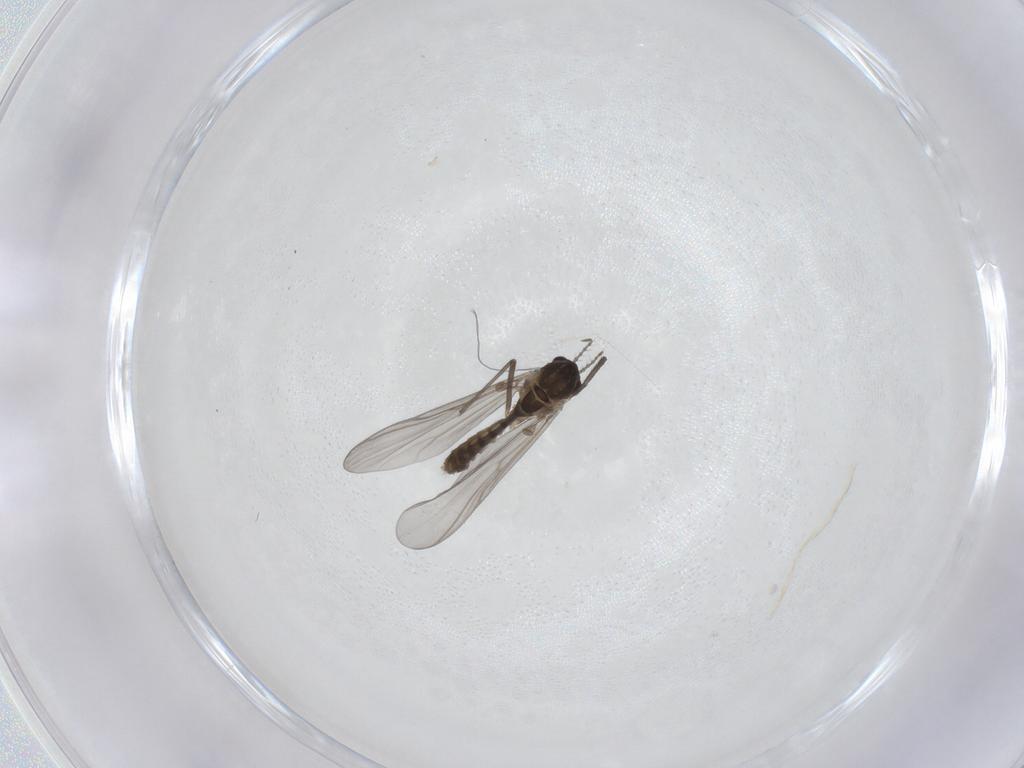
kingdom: Animalia
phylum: Arthropoda
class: Insecta
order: Diptera
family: Chironomidae
